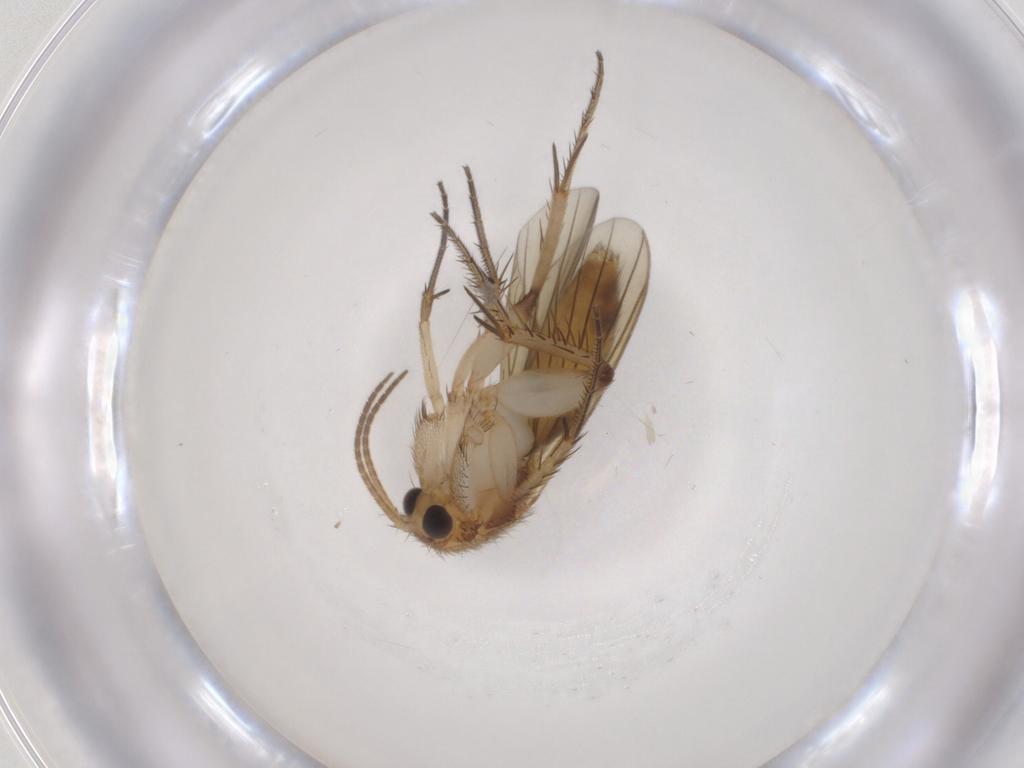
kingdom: Animalia
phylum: Arthropoda
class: Insecta
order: Diptera
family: Mycetophilidae
